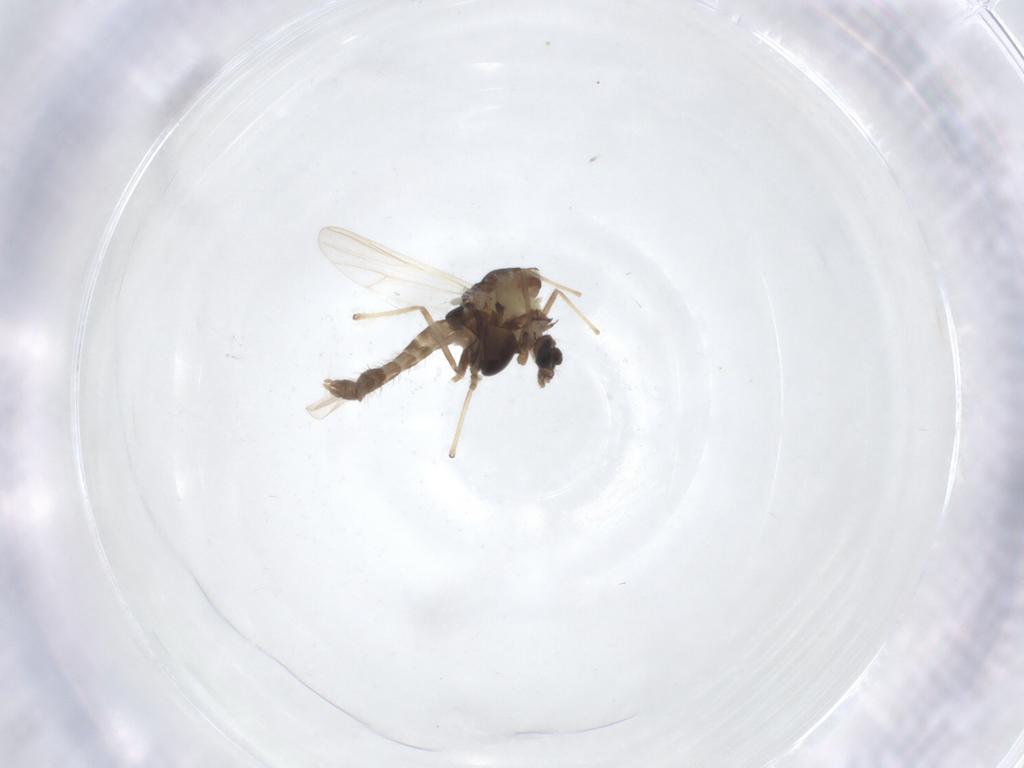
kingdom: Animalia
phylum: Arthropoda
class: Insecta
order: Diptera
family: Chironomidae
